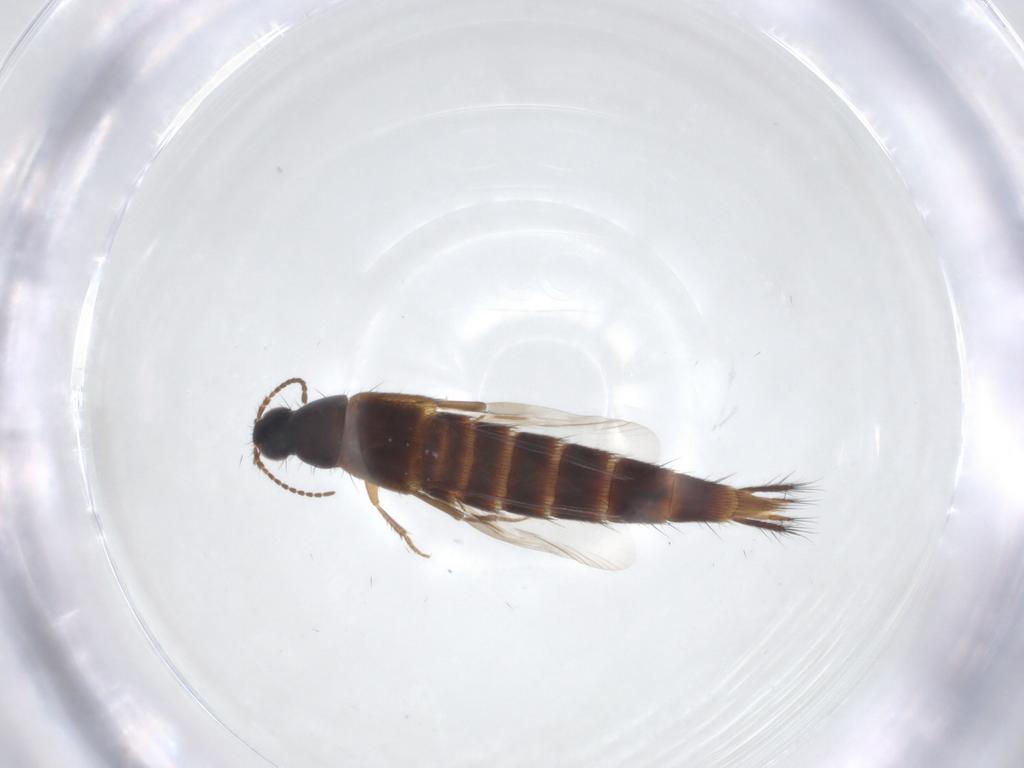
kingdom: Animalia
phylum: Arthropoda
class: Insecta
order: Coleoptera
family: Staphylinidae
